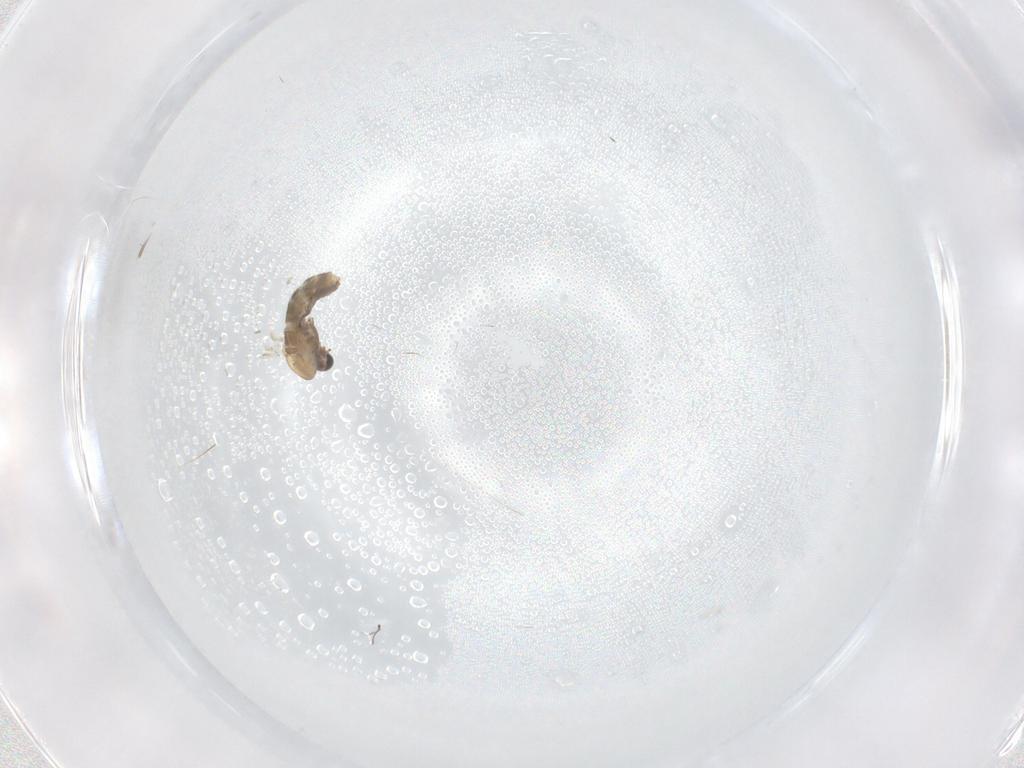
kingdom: Animalia
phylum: Arthropoda
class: Insecta
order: Diptera
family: Chironomidae
